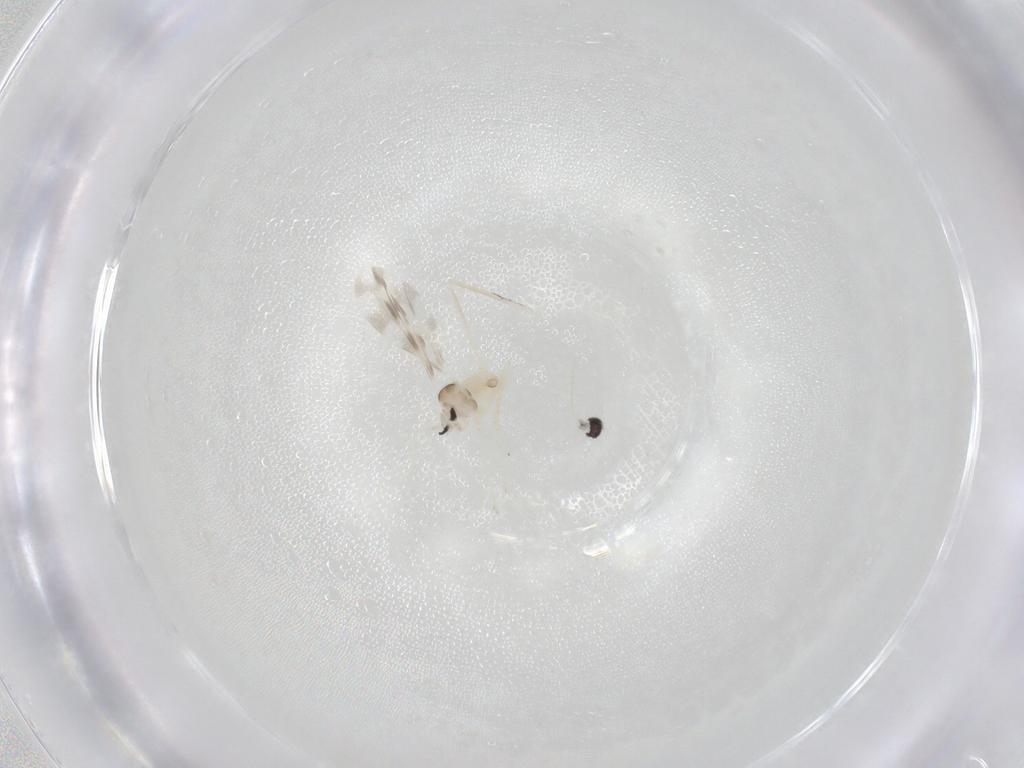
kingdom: Animalia
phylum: Arthropoda
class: Insecta
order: Diptera
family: Cecidomyiidae
